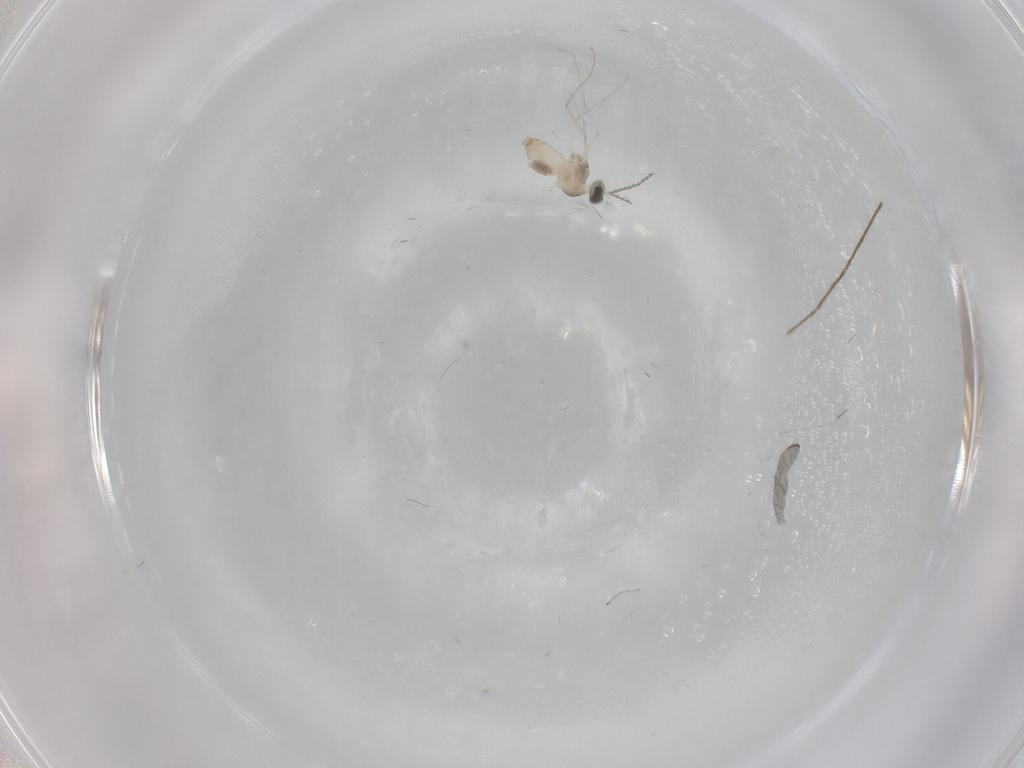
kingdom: Animalia
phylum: Arthropoda
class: Insecta
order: Diptera
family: Cecidomyiidae
